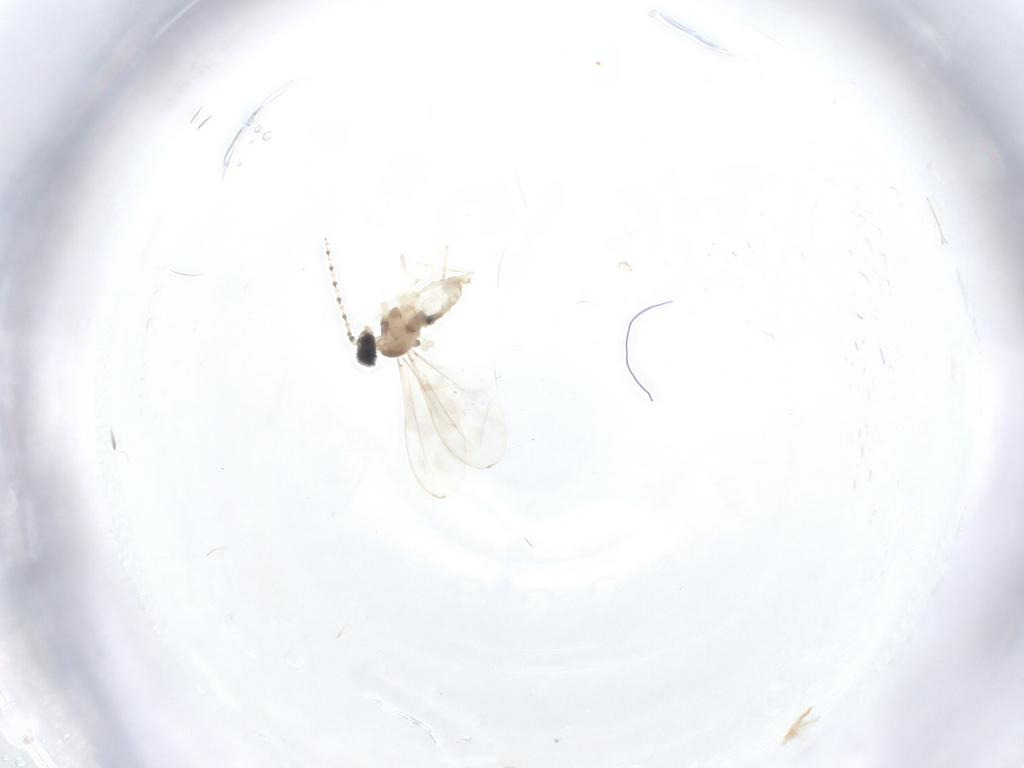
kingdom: Animalia
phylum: Arthropoda
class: Insecta
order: Diptera
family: Cecidomyiidae
